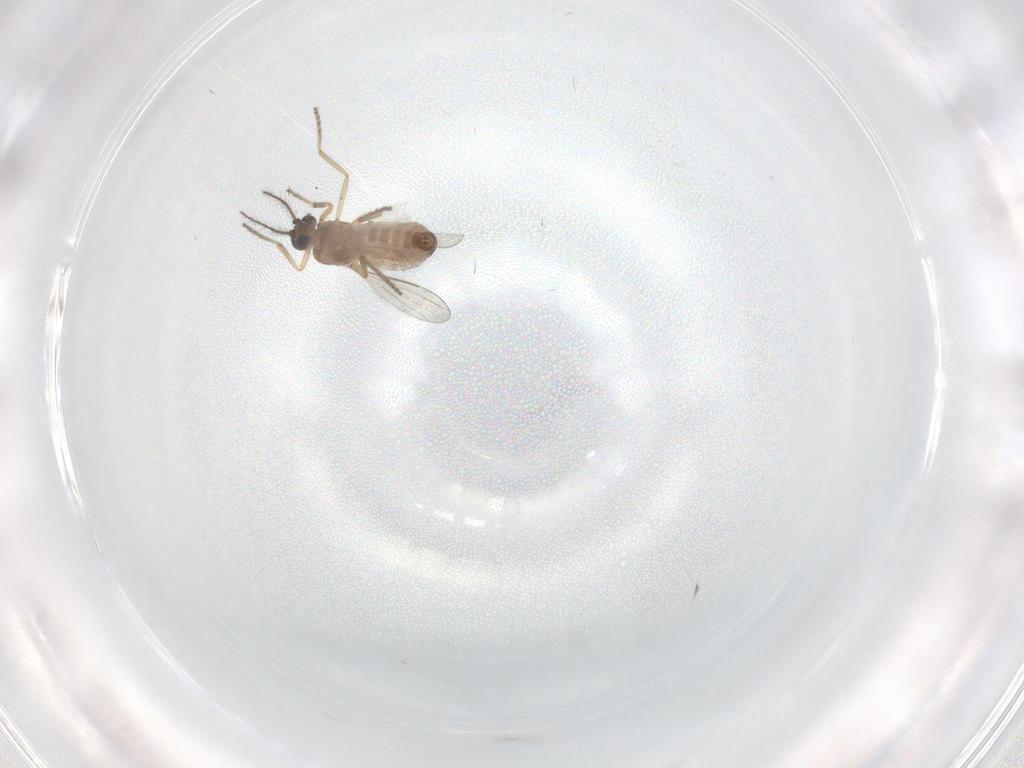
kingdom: Animalia
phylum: Arthropoda
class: Insecta
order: Diptera
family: Ceratopogonidae
